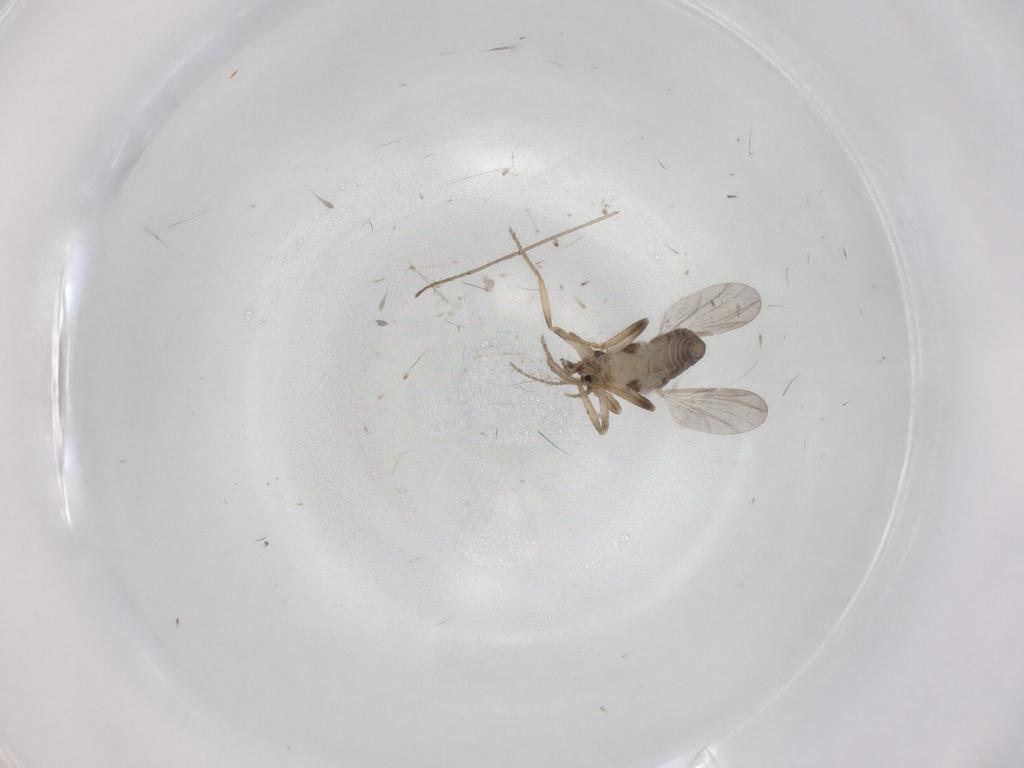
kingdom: Animalia
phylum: Arthropoda
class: Insecta
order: Diptera
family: Ceratopogonidae
